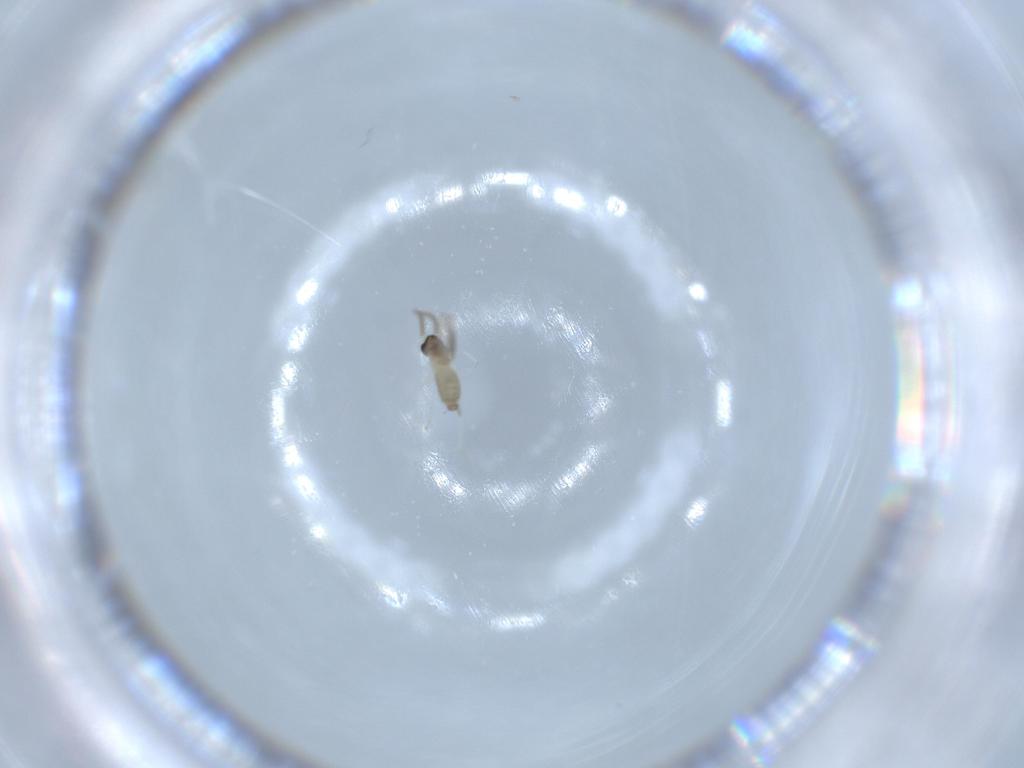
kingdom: Animalia
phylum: Arthropoda
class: Insecta
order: Diptera
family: Cecidomyiidae
